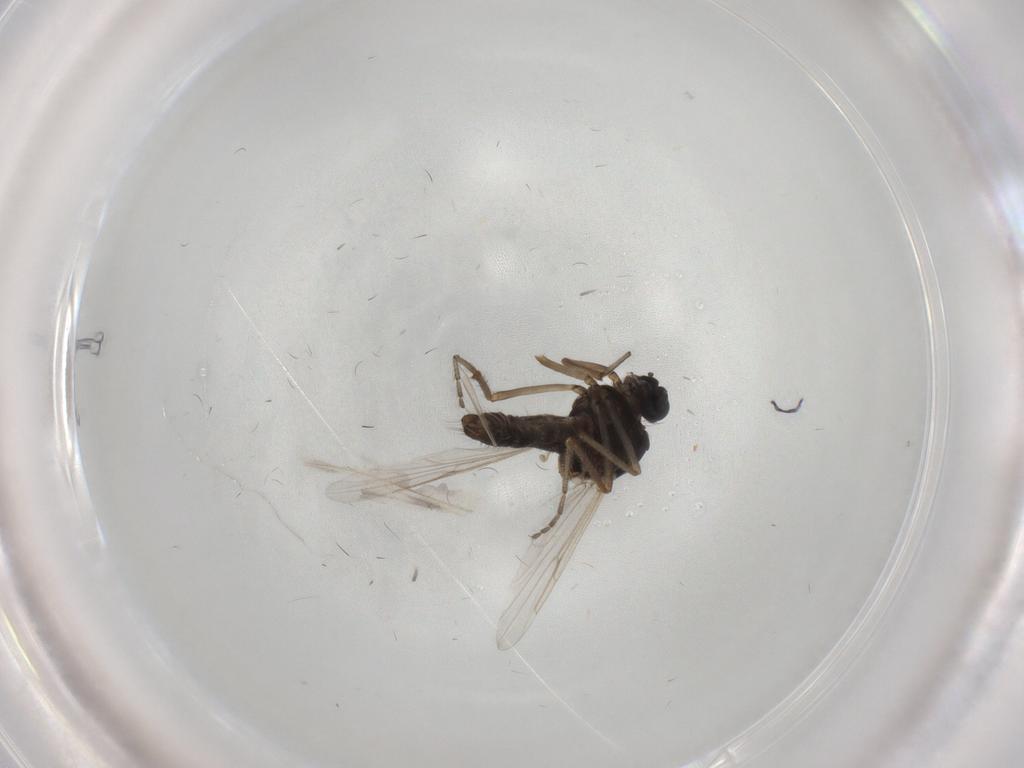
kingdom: Animalia
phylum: Arthropoda
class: Insecta
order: Diptera
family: Ceratopogonidae
